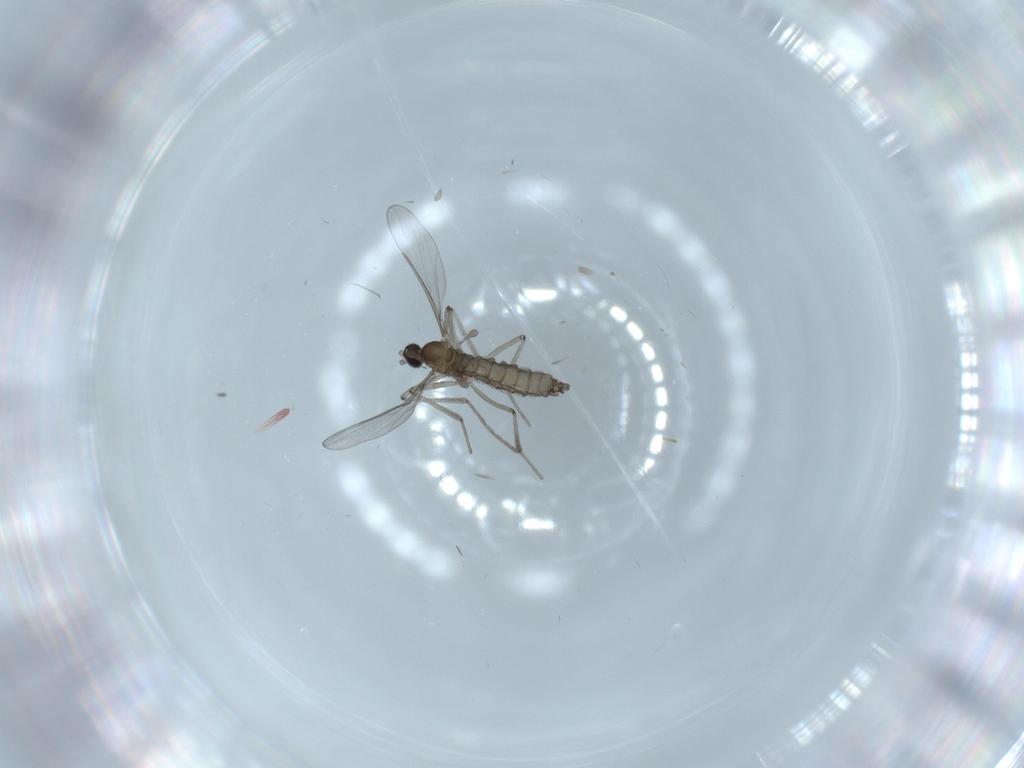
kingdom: Animalia
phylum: Arthropoda
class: Insecta
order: Diptera
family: Cecidomyiidae
